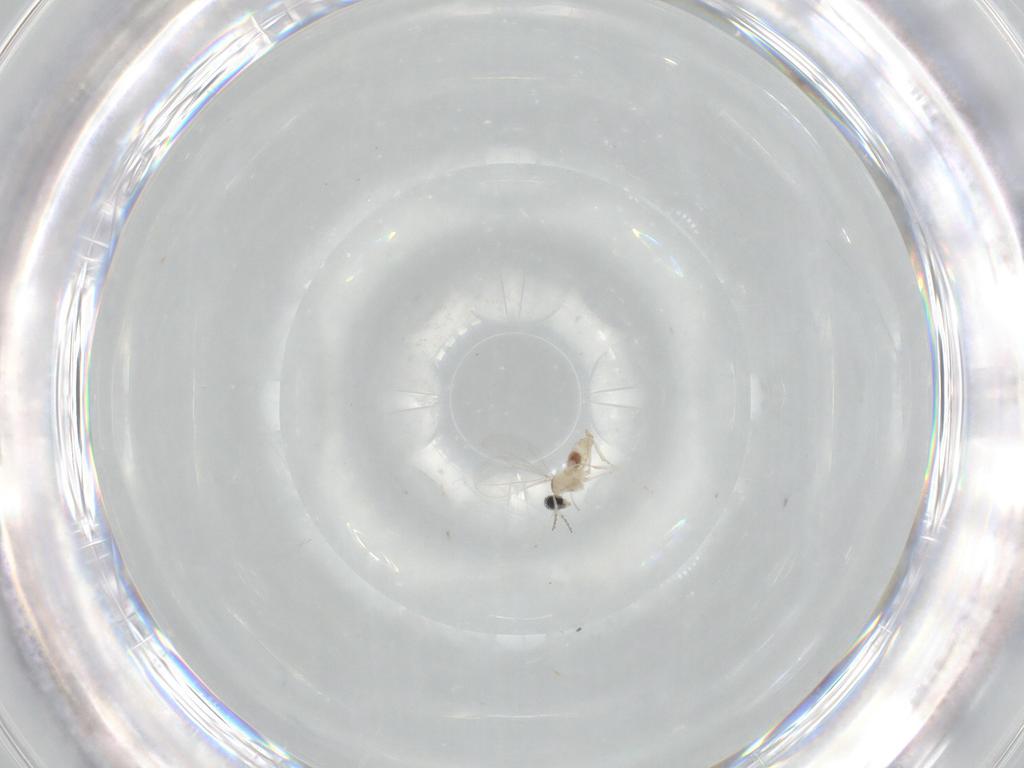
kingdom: Animalia
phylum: Arthropoda
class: Insecta
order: Diptera
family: Cecidomyiidae
